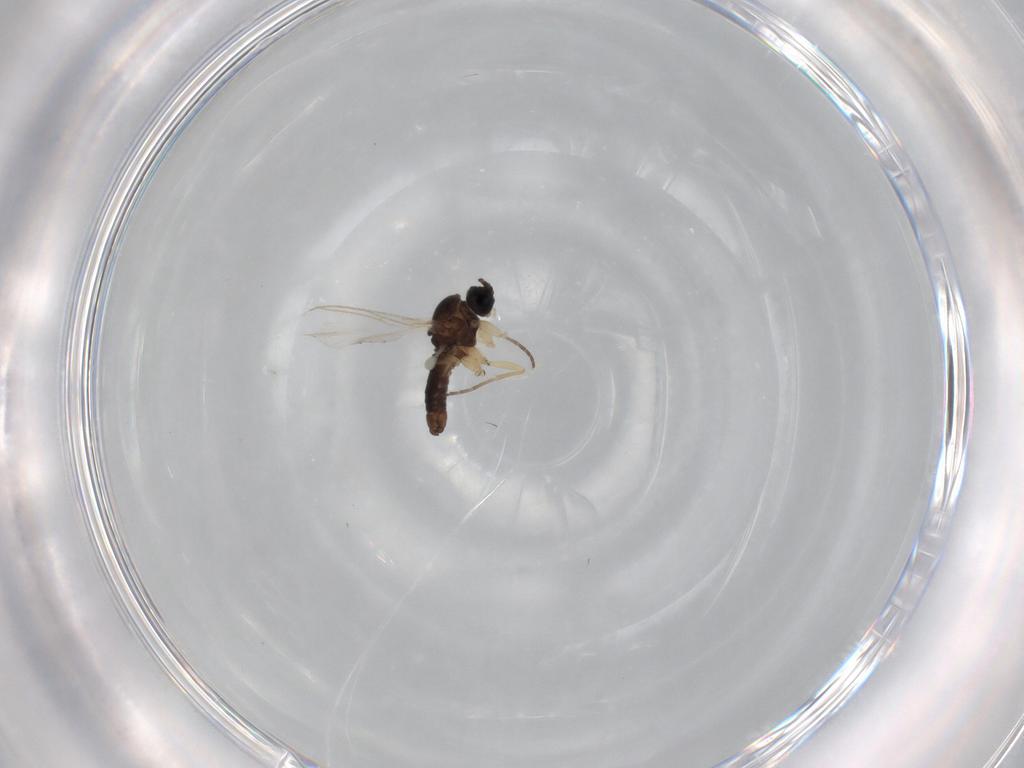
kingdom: Animalia
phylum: Arthropoda
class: Insecta
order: Diptera
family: Sciaridae
